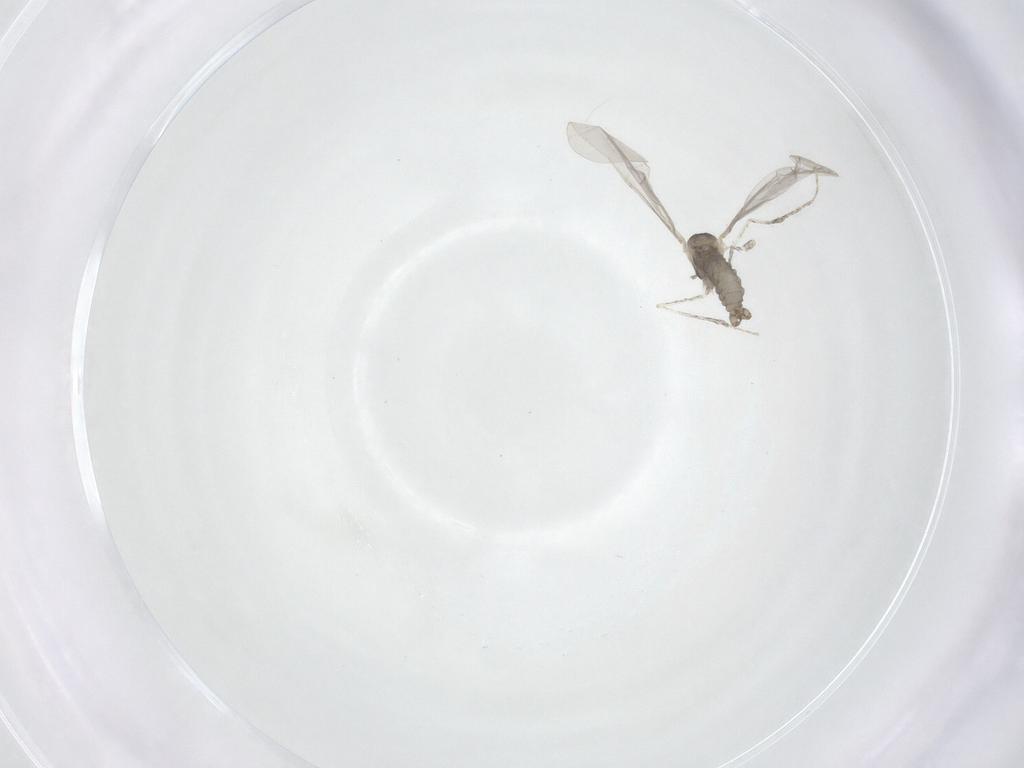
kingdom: Animalia
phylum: Arthropoda
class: Insecta
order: Diptera
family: Cecidomyiidae
